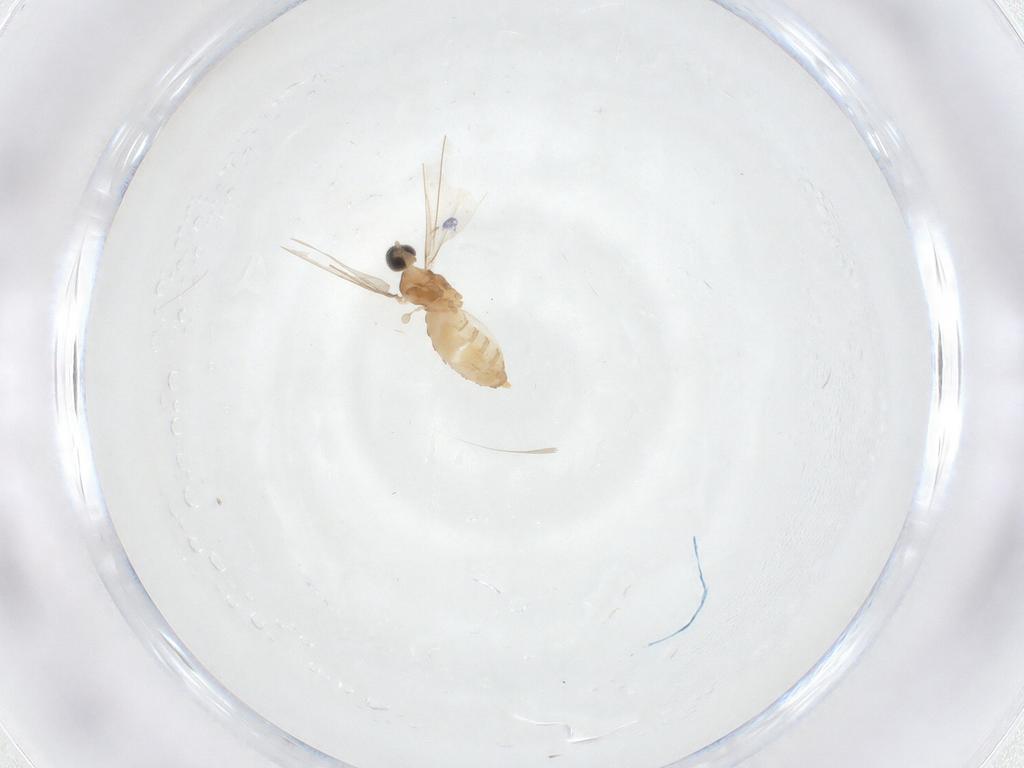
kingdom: Animalia
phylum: Arthropoda
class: Insecta
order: Diptera
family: Cecidomyiidae
